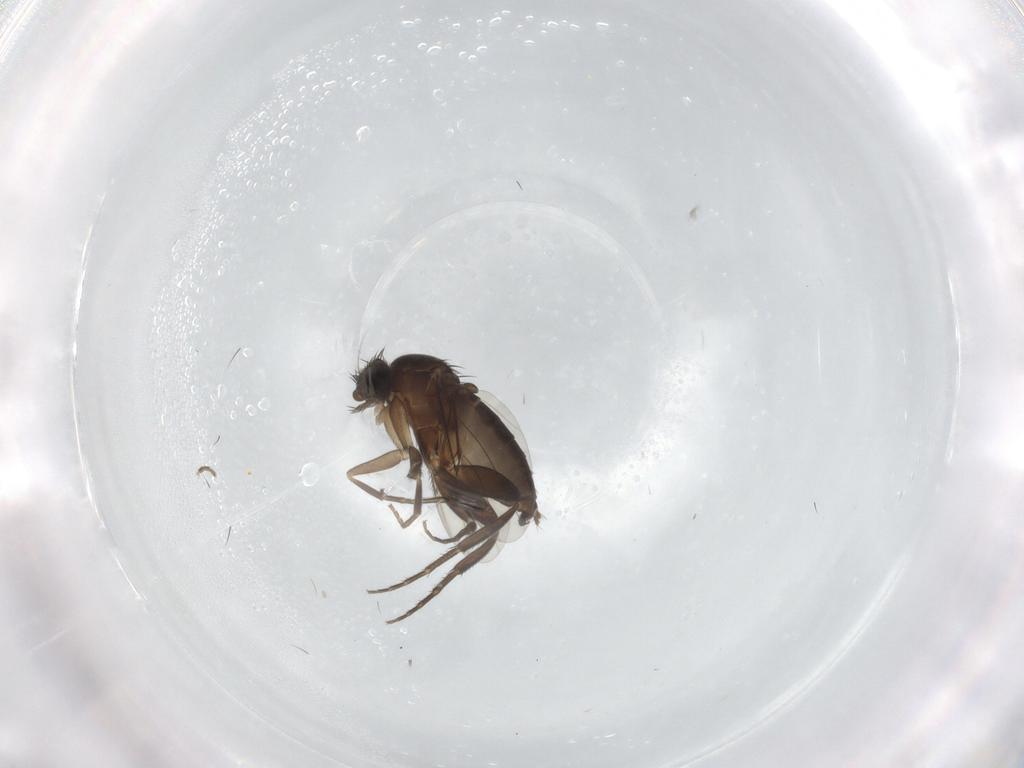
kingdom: Animalia
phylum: Arthropoda
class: Insecta
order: Diptera
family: Phoridae
